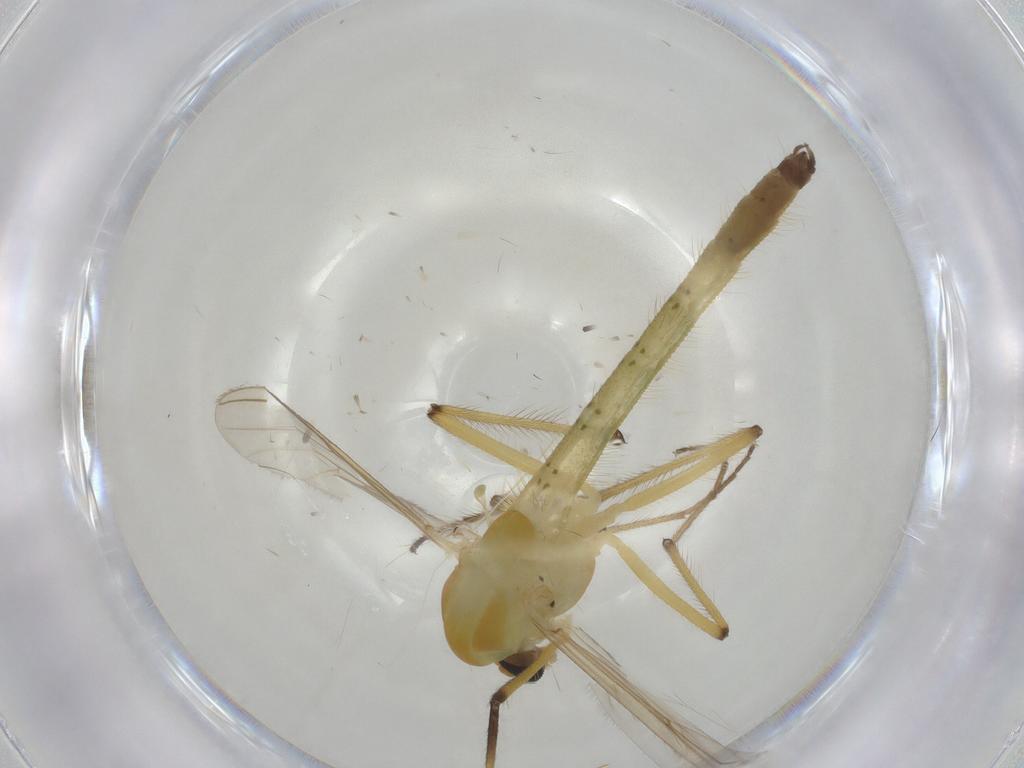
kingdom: Animalia
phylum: Arthropoda
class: Insecta
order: Diptera
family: Chironomidae
